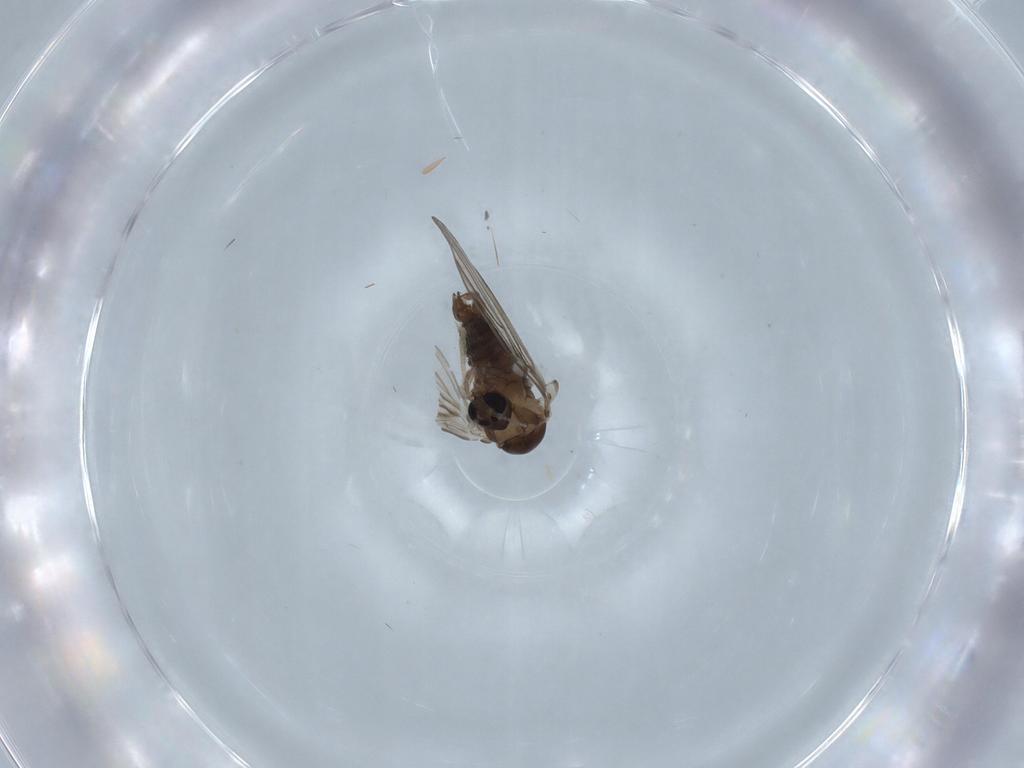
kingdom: Animalia
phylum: Arthropoda
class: Insecta
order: Diptera
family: Psychodidae
